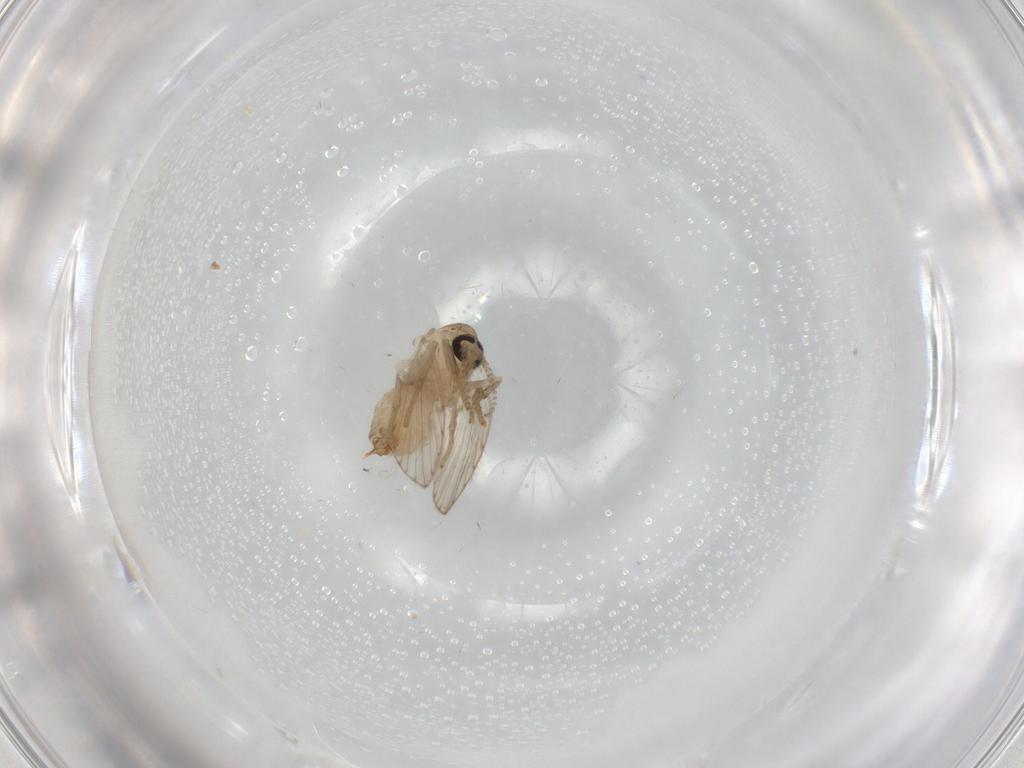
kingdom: Animalia
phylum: Arthropoda
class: Insecta
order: Diptera
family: Psychodidae
